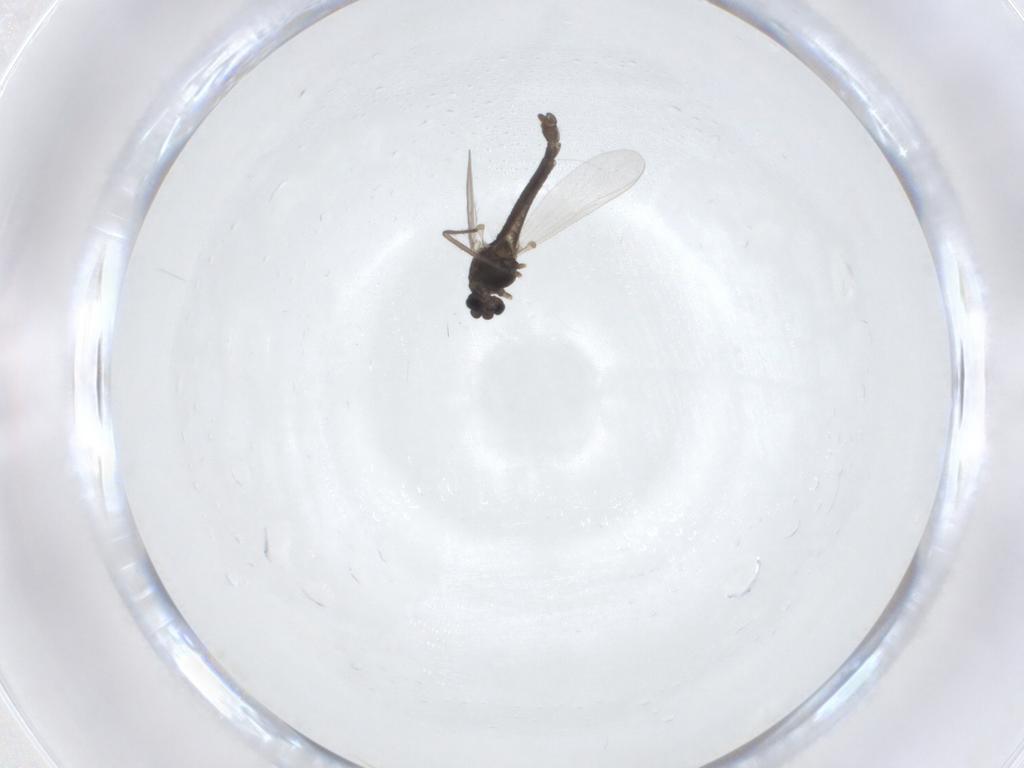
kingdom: Animalia
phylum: Arthropoda
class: Insecta
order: Diptera
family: Chironomidae
